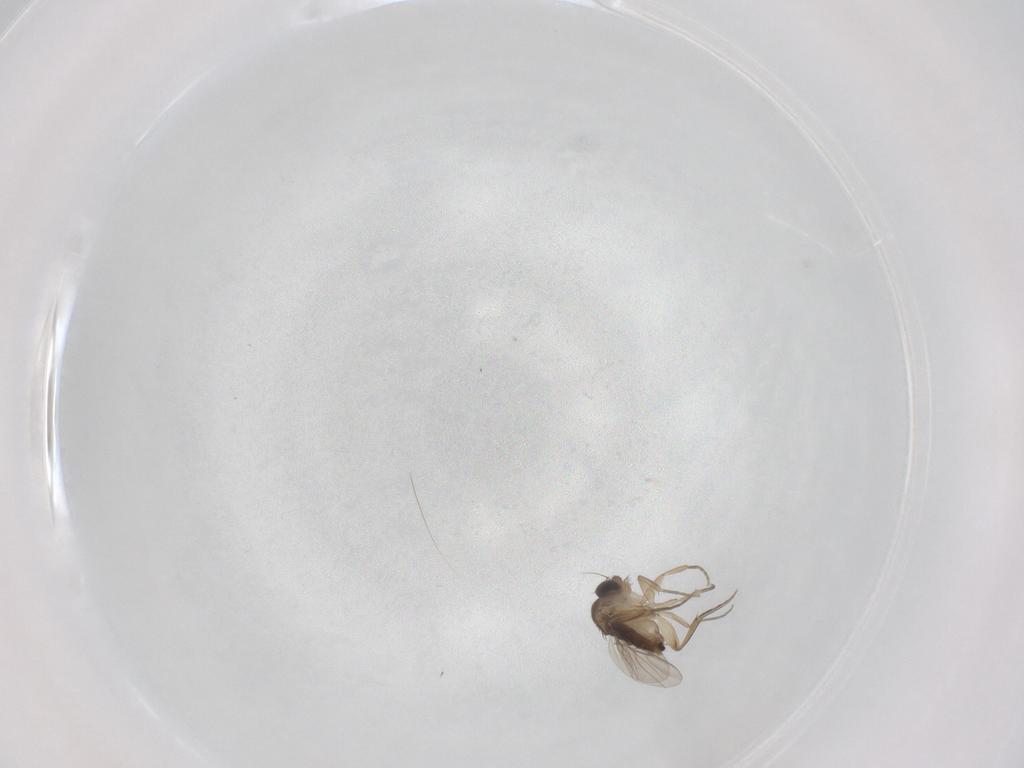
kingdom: Animalia
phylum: Arthropoda
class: Insecta
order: Diptera
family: Phoridae
